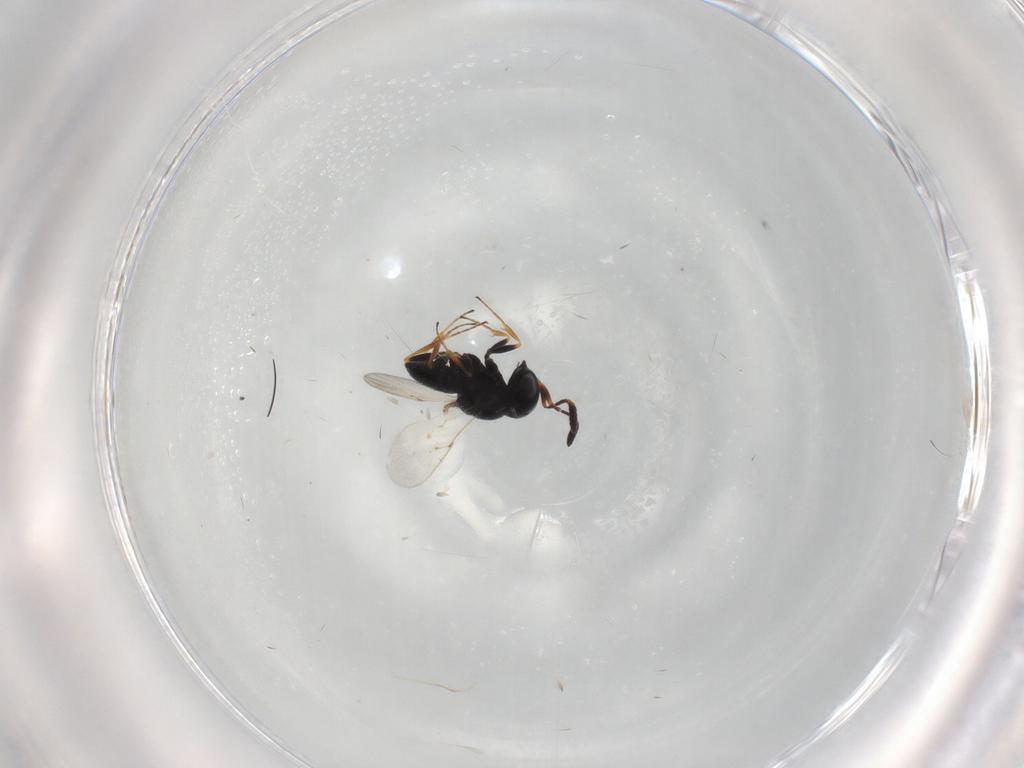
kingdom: Animalia
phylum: Arthropoda
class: Insecta
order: Coleoptera
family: Curculionidae
